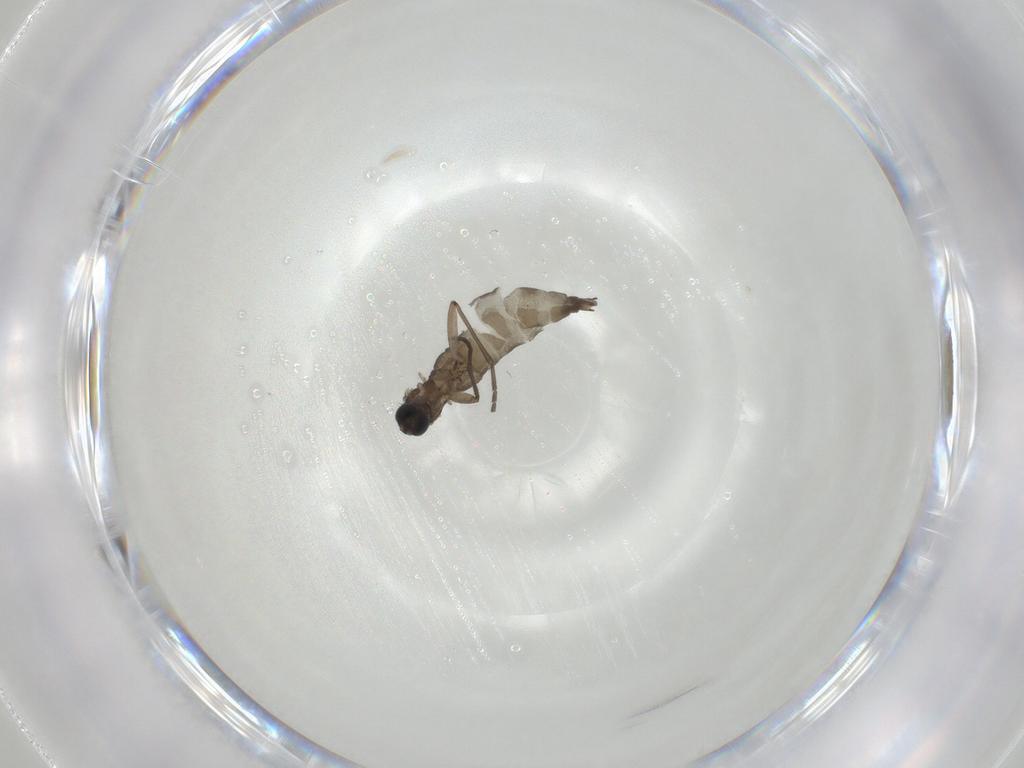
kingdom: Animalia
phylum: Arthropoda
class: Insecta
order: Diptera
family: Sciaridae
